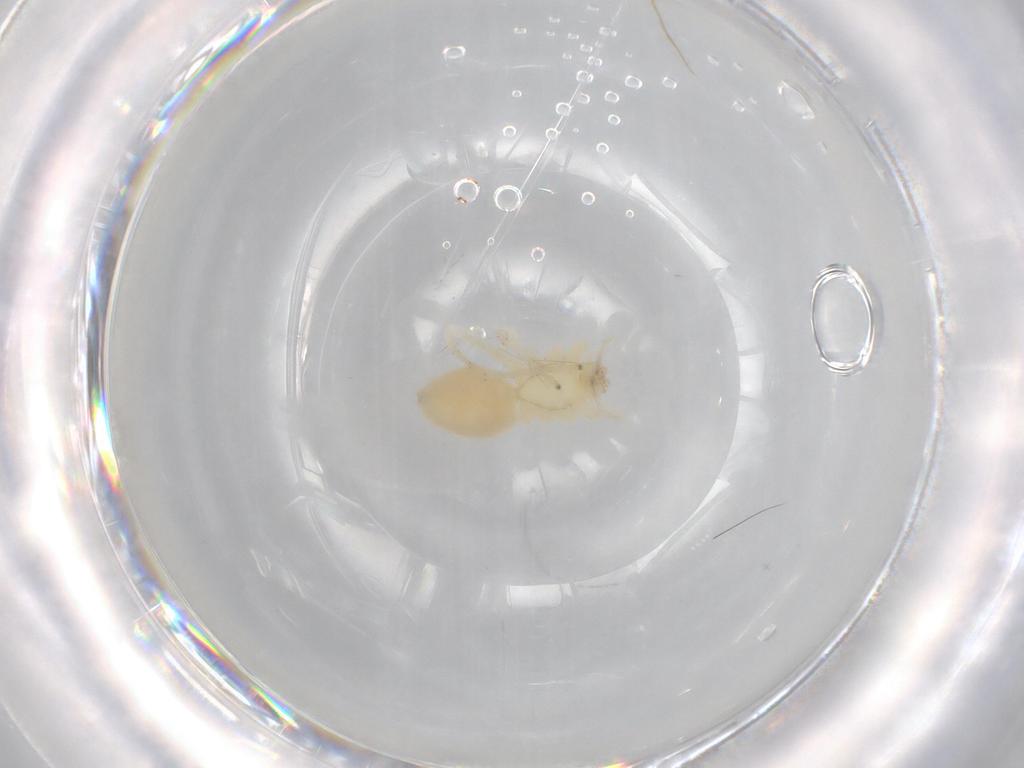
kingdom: Animalia
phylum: Arthropoda
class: Arachnida
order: Araneae
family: Anyphaenidae
